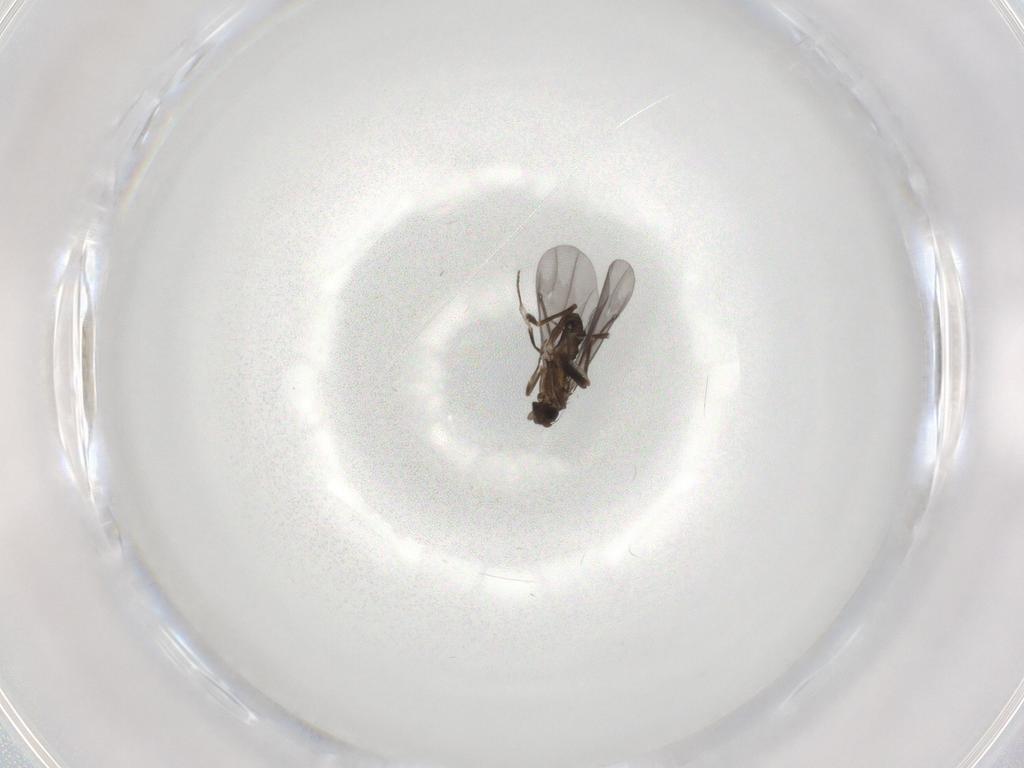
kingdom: Animalia
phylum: Arthropoda
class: Insecta
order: Diptera
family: Phoridae
